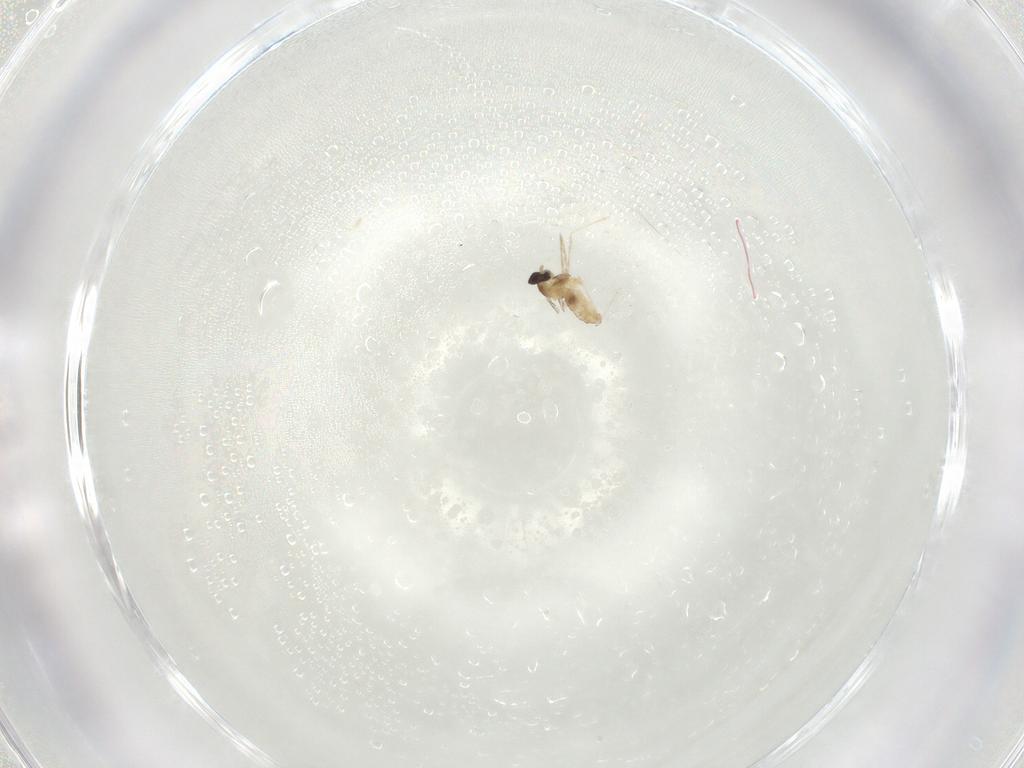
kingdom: Animalia
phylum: Arthropoda
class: Insecta
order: Diptera
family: Cecidomyiidae
